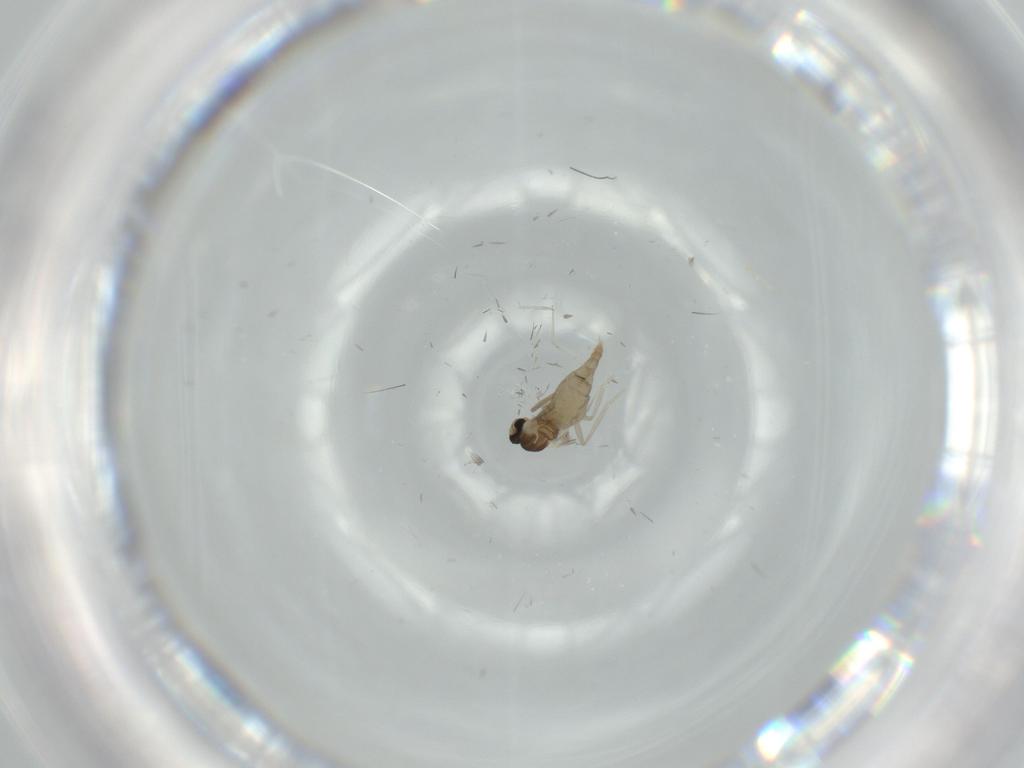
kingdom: Animalia
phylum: Arthropoda
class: Insecta
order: Diptera
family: Cecidomyiidae
